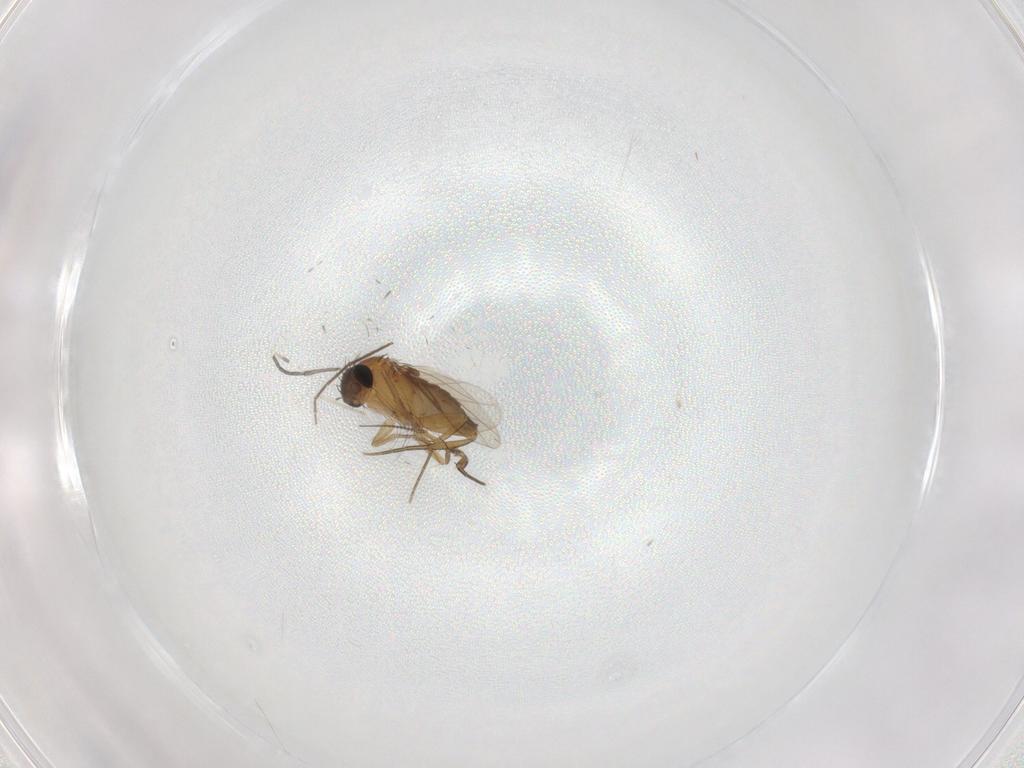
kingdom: Animalia
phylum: Arthropoda
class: Insecta
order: Diptera
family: Phoridae
